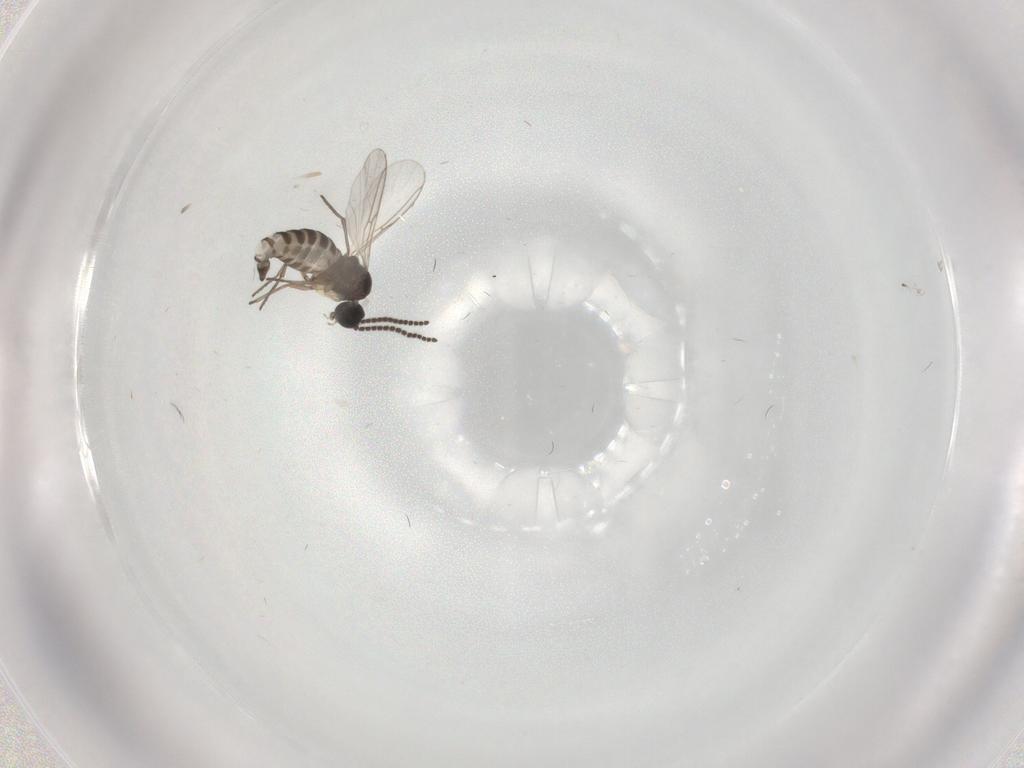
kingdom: Animalia
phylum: Arthropoda
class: Insecta
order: Diptera
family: Sciaridae
